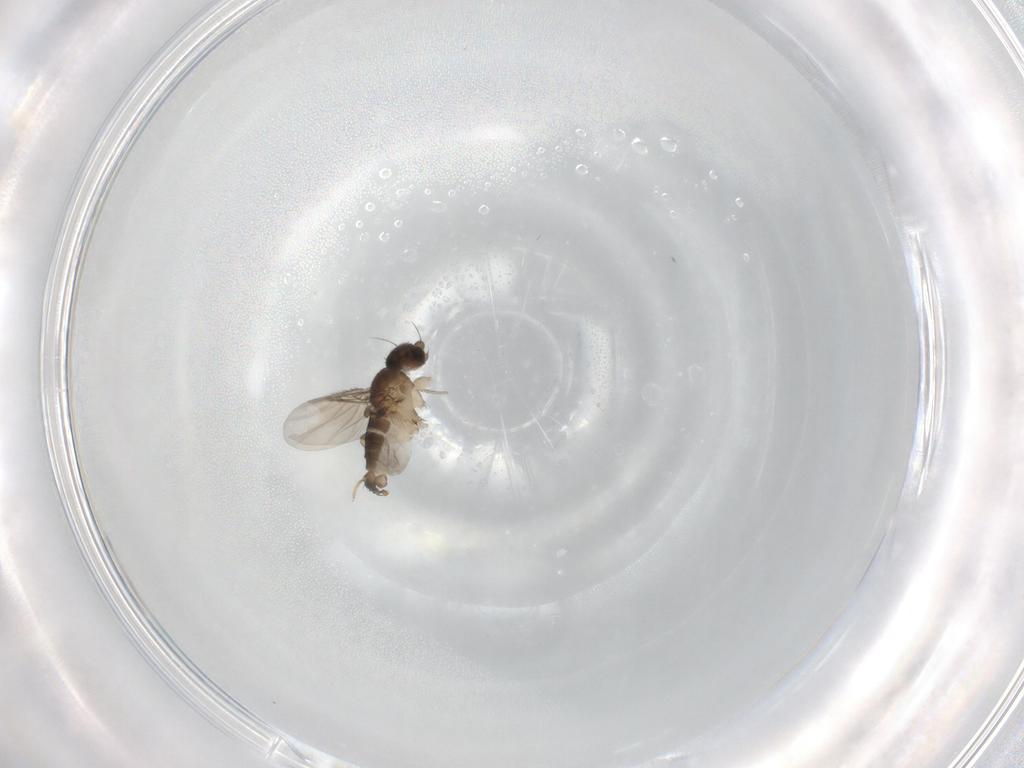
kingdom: Animalia
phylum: Arthropoda
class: Insecta
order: Diptera
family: Phoridae
